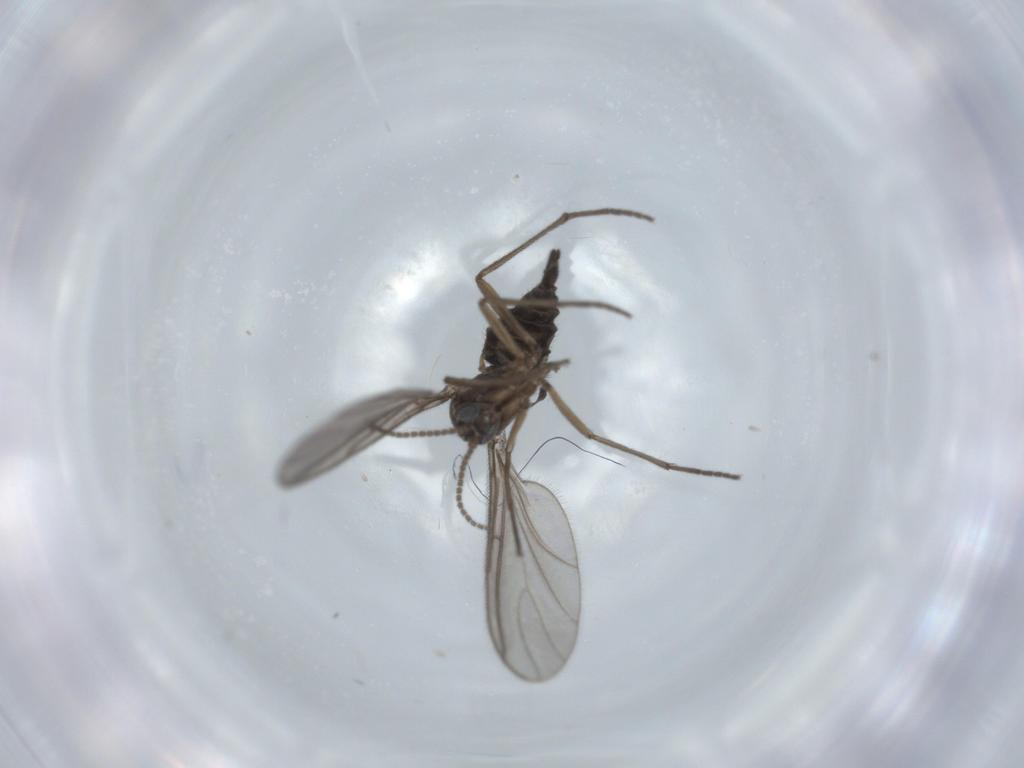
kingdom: Animalia
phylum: Arthropoda
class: Insecta
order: Diptera
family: Sciaridae
